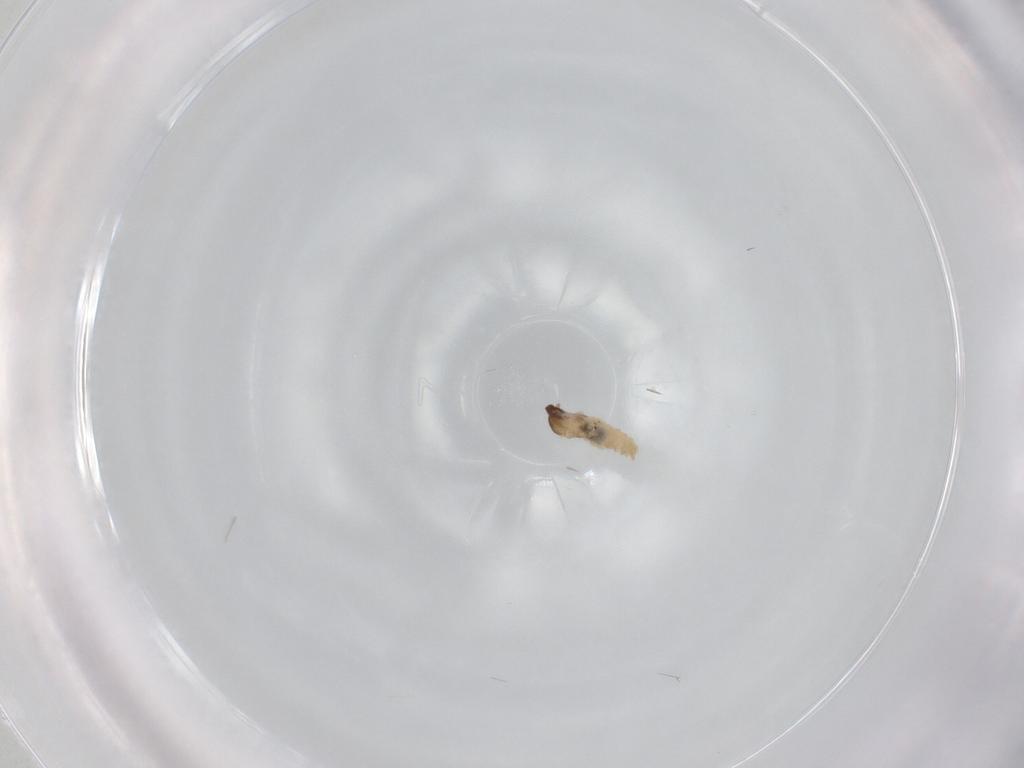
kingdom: Animalia
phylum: Arthropoda
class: Insecta
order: Diptera
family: Cecidomyiidae
